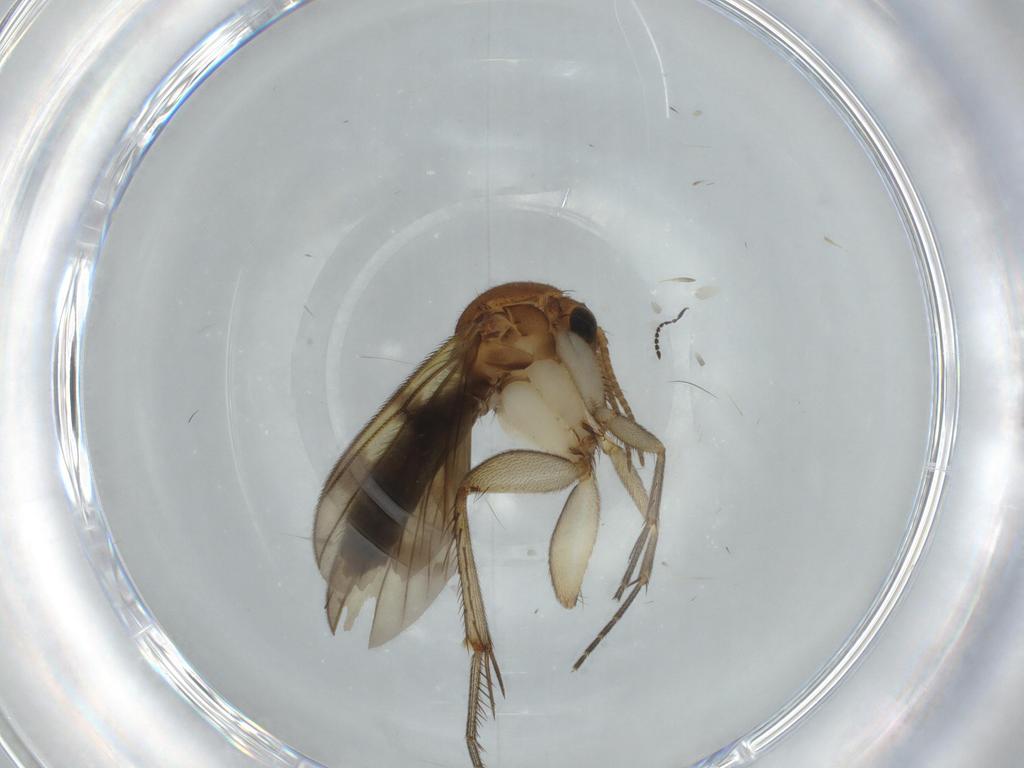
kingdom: Animalia
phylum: Arthropoda
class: Insecta
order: Diptera
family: Mycetophilidae
